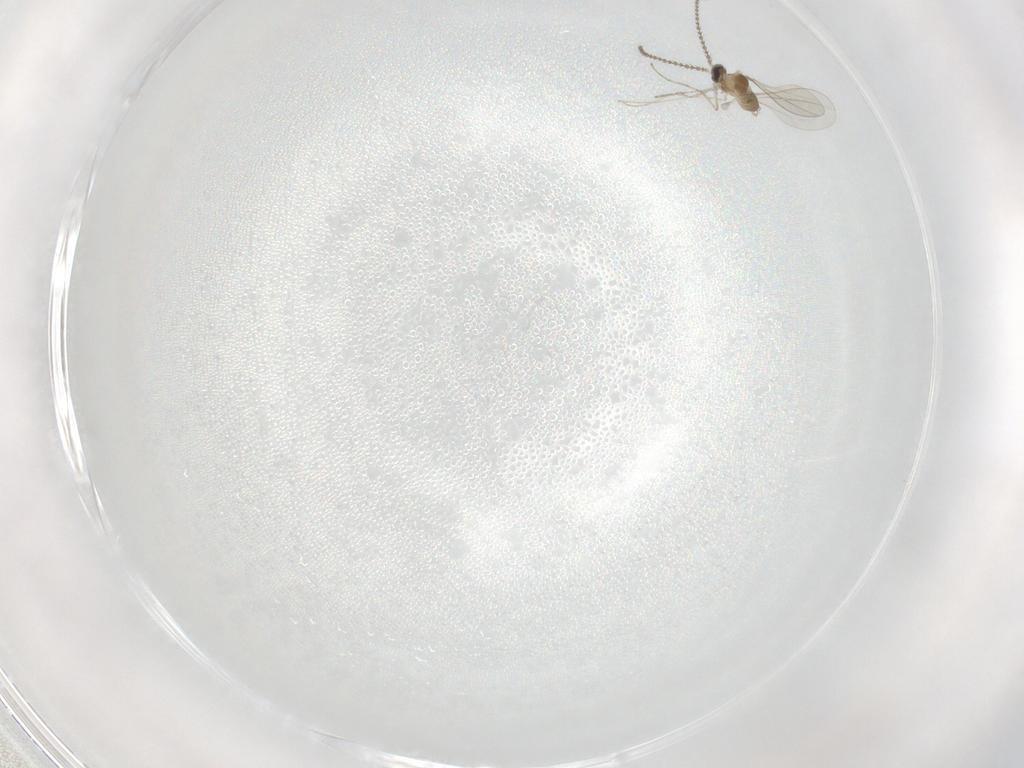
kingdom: Animalia
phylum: Arthropoda
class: Insecta
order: Diptera
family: Cecidomyiidae
